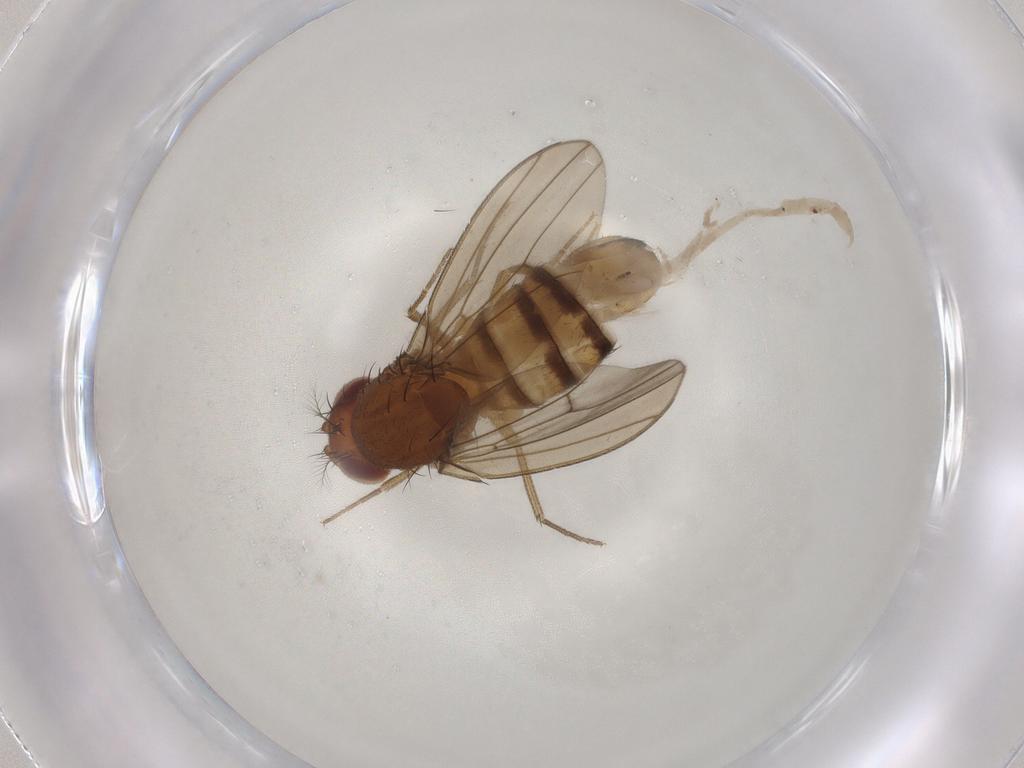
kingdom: Animalia
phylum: Arthropoda
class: Insecta
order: Diptera
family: Drosophilidae
